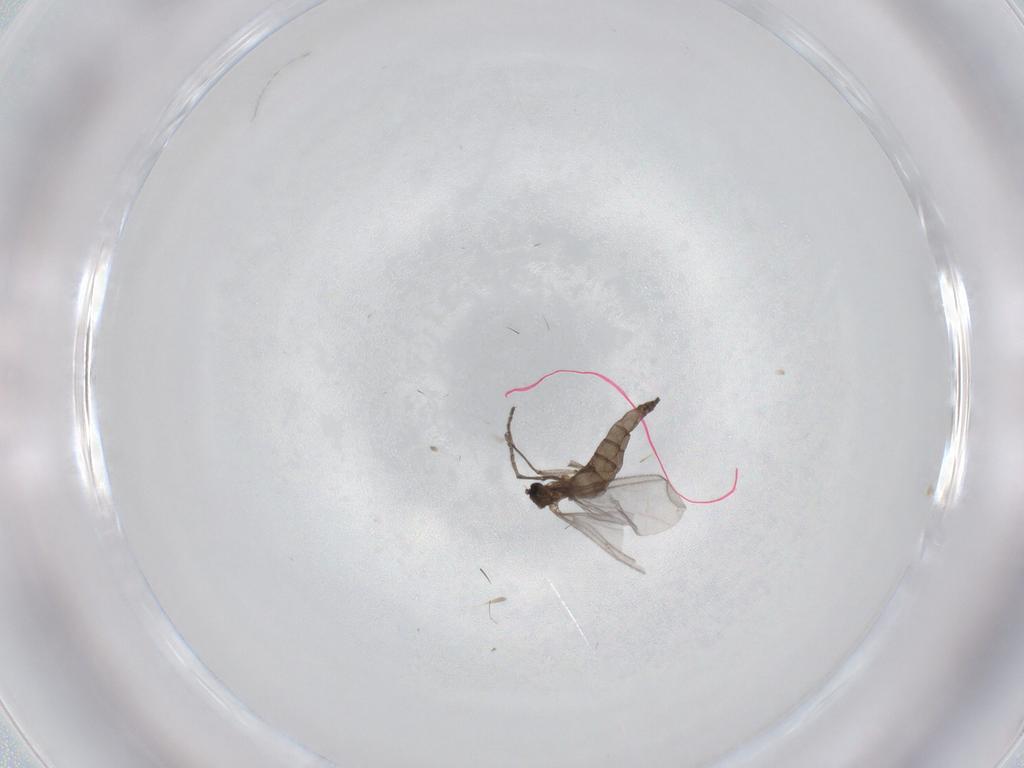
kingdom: Animalia
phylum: Arthropoda
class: Insecta
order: Diptera
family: Sciaridae
